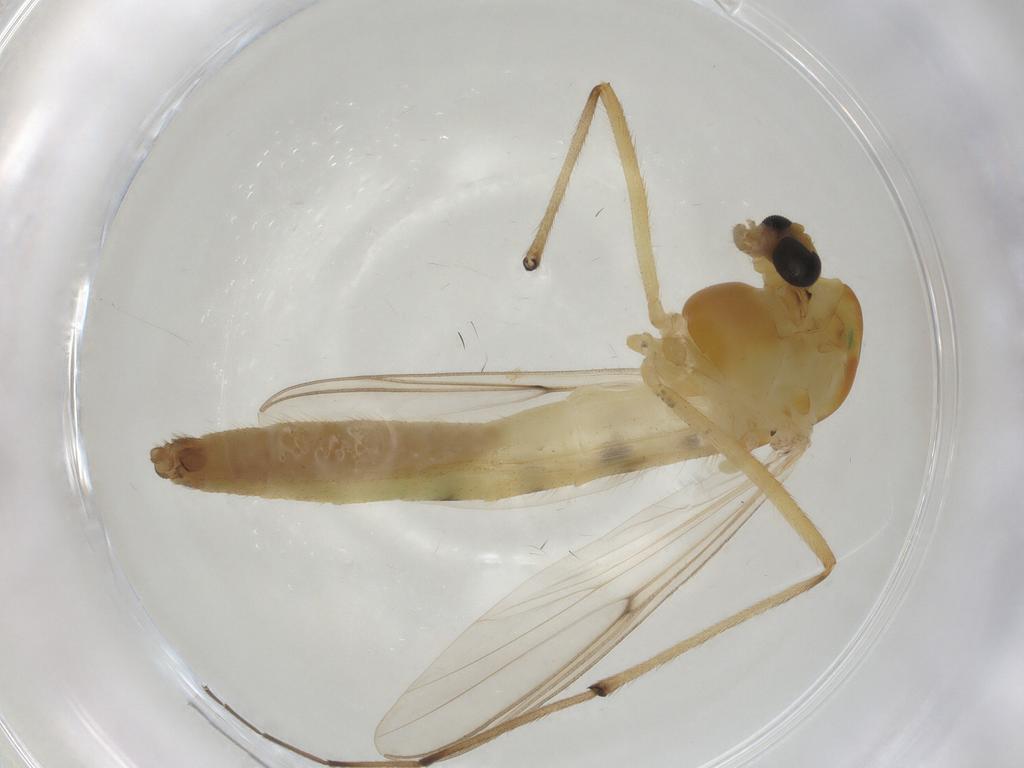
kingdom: Animalia
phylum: Arthropoda
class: Insecta
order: Diptera
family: Chironomidae
